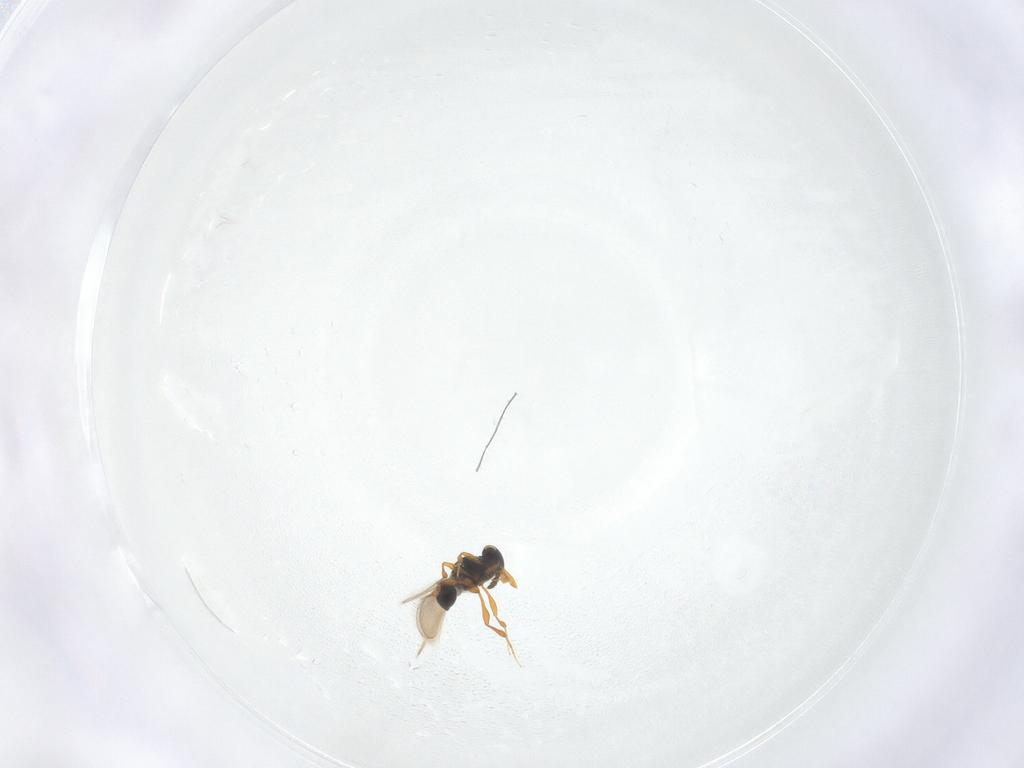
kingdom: Animalia
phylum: Arthropoda
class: Insecta
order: Hymenoptera
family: Platygastridae
